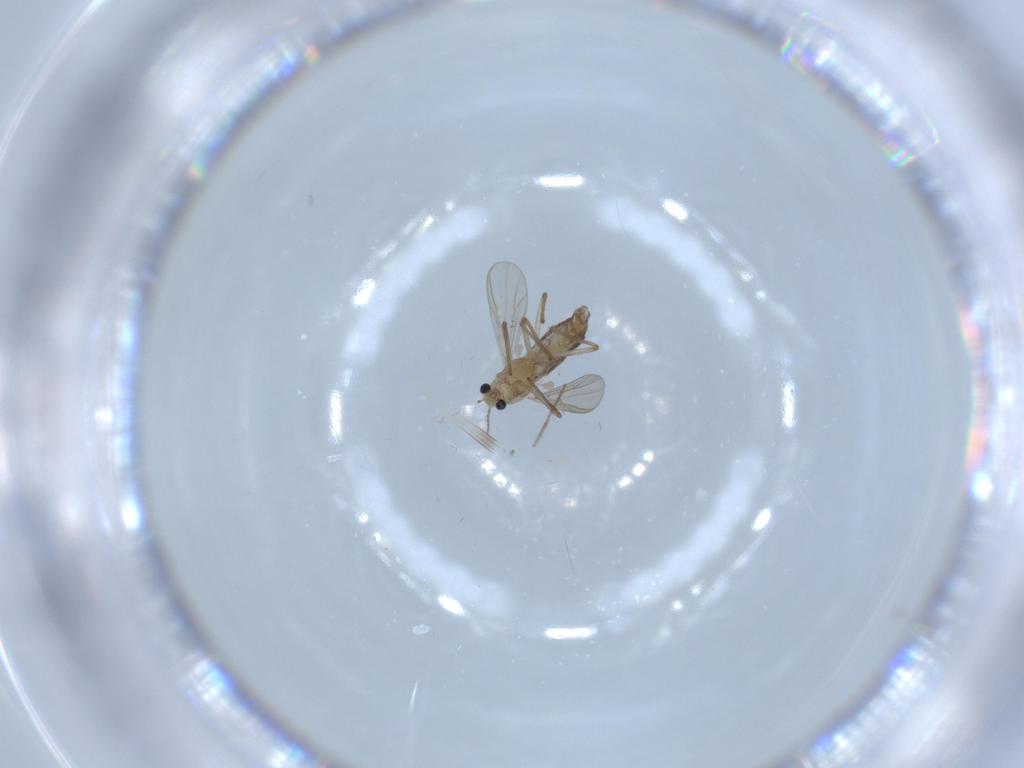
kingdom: Animalia
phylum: Arthropoda
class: Insecta
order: Diptera
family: Chironomidae
